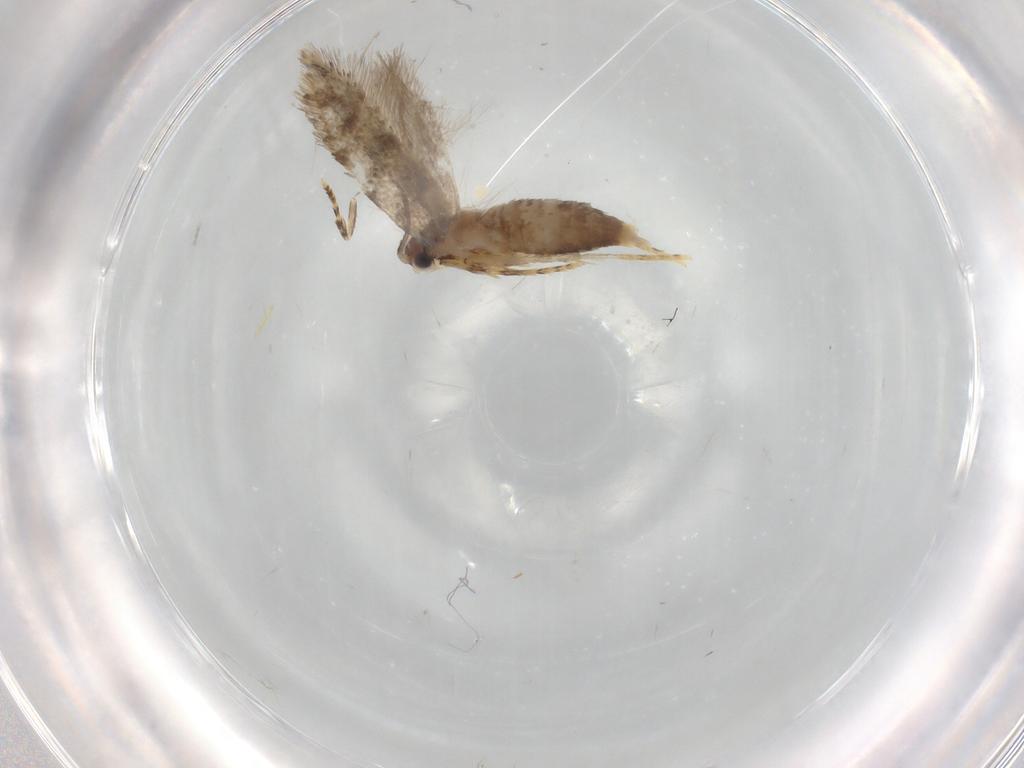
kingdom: Animalia
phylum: Arthropoda
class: Insecta
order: Lepidoptera
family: Tineidae
